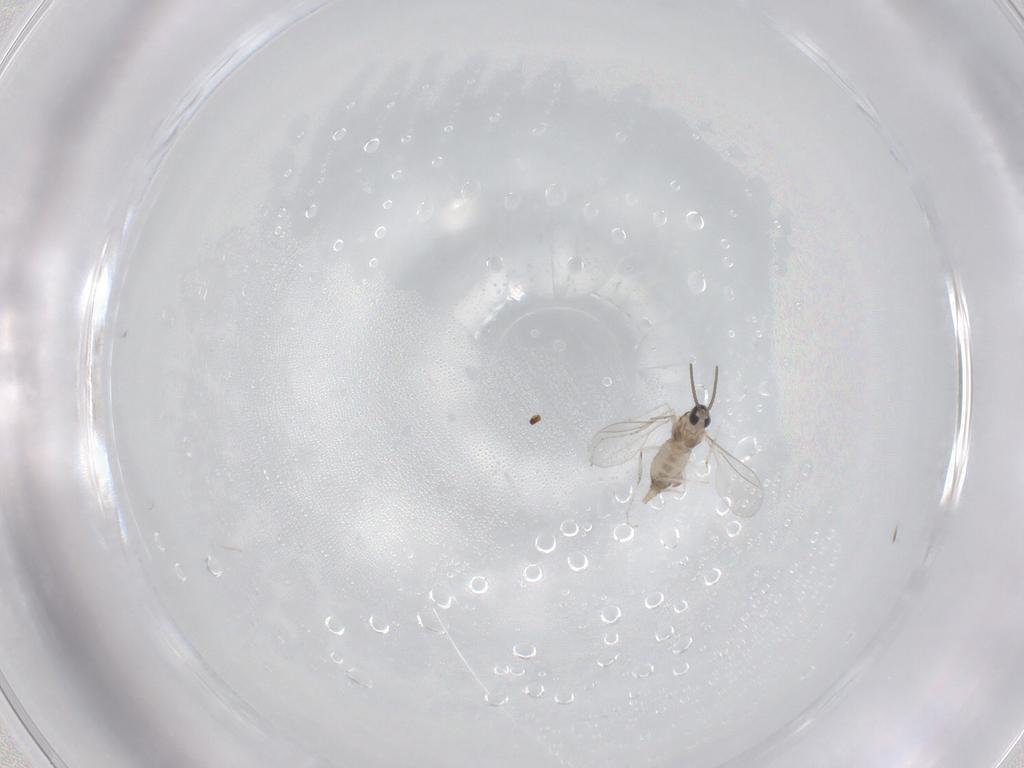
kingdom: Animalia
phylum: Arthropoda
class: Insecta
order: Diptera
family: Cecidomyiidae
